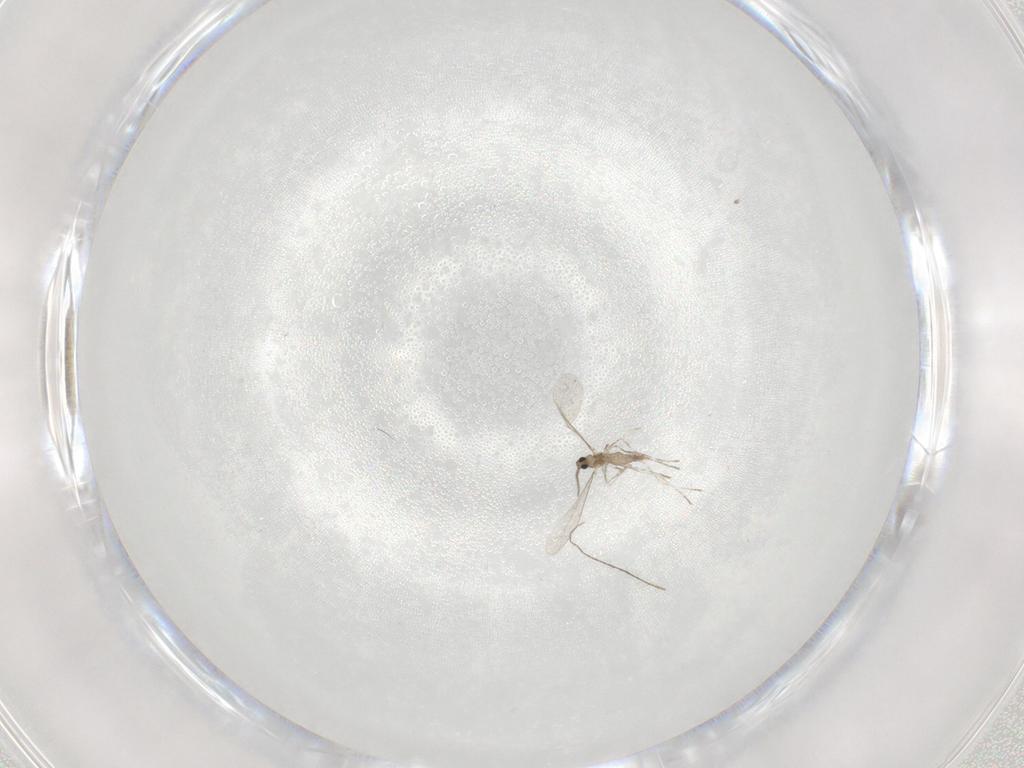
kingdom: Animalia
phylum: Arthropoda
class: Insecta
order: Diptera
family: Cecidomyiidae
